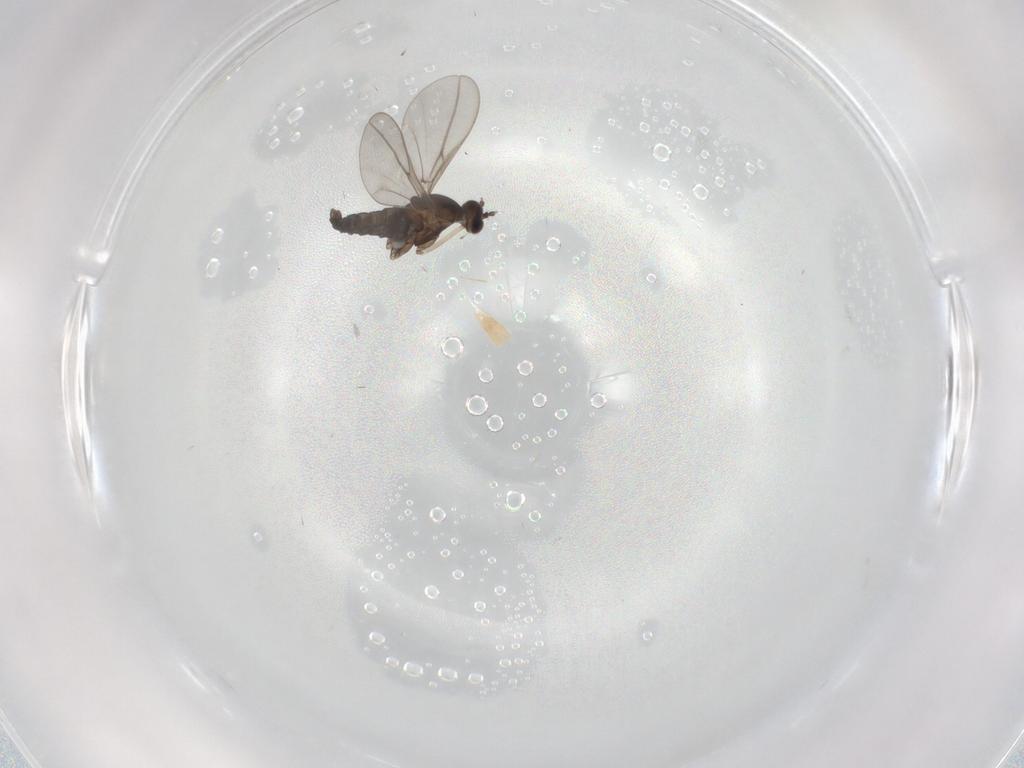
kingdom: Animalia
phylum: Arthropoda
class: Insecta
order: Diptera
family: Cecidomyiidae
